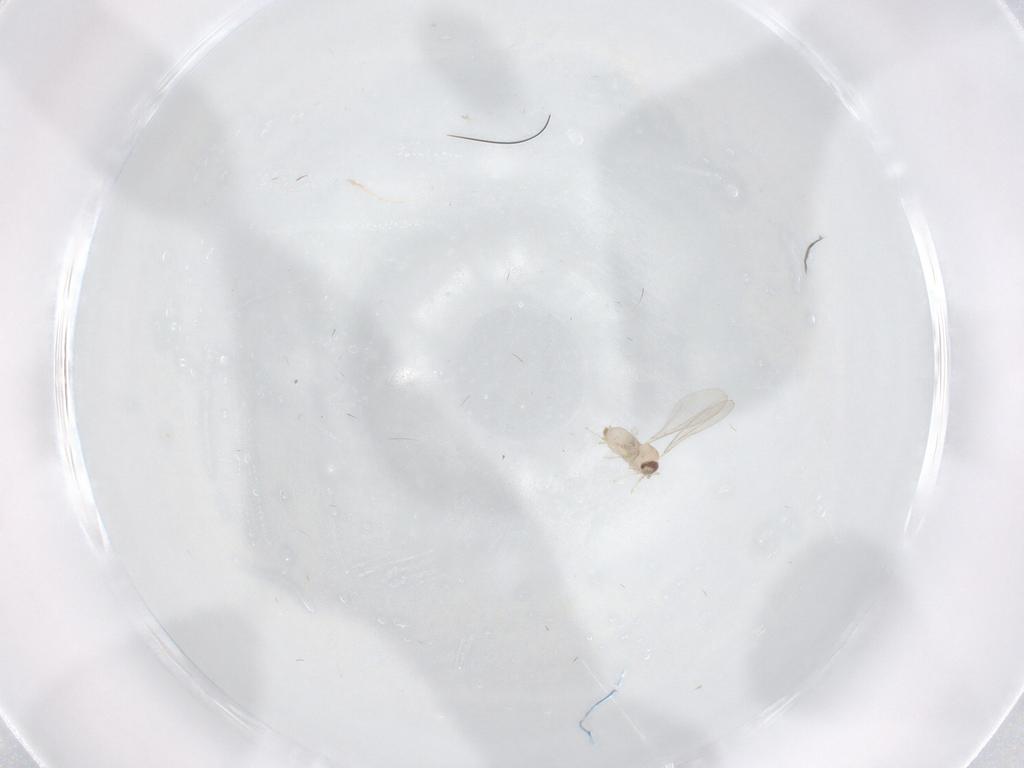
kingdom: Animalia
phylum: Arthropoda
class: Insecta
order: Diptera
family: Cecidomyiidae
